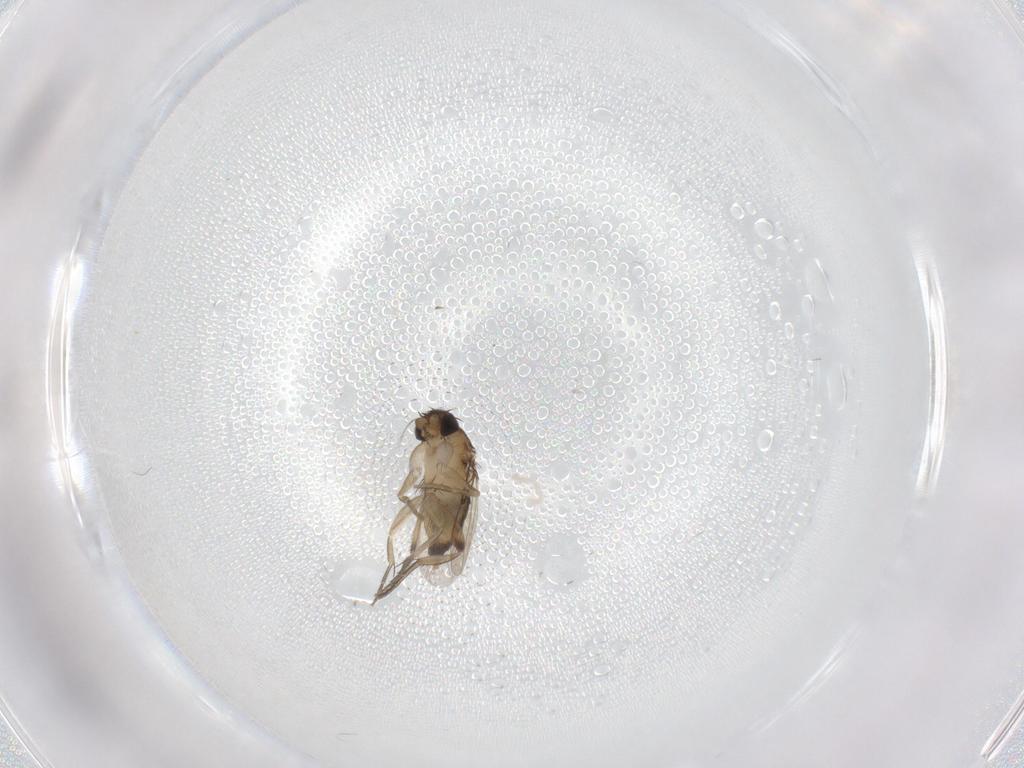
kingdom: Animalia
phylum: Arthropoda
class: Insecta
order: Diptera
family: Phoridae
